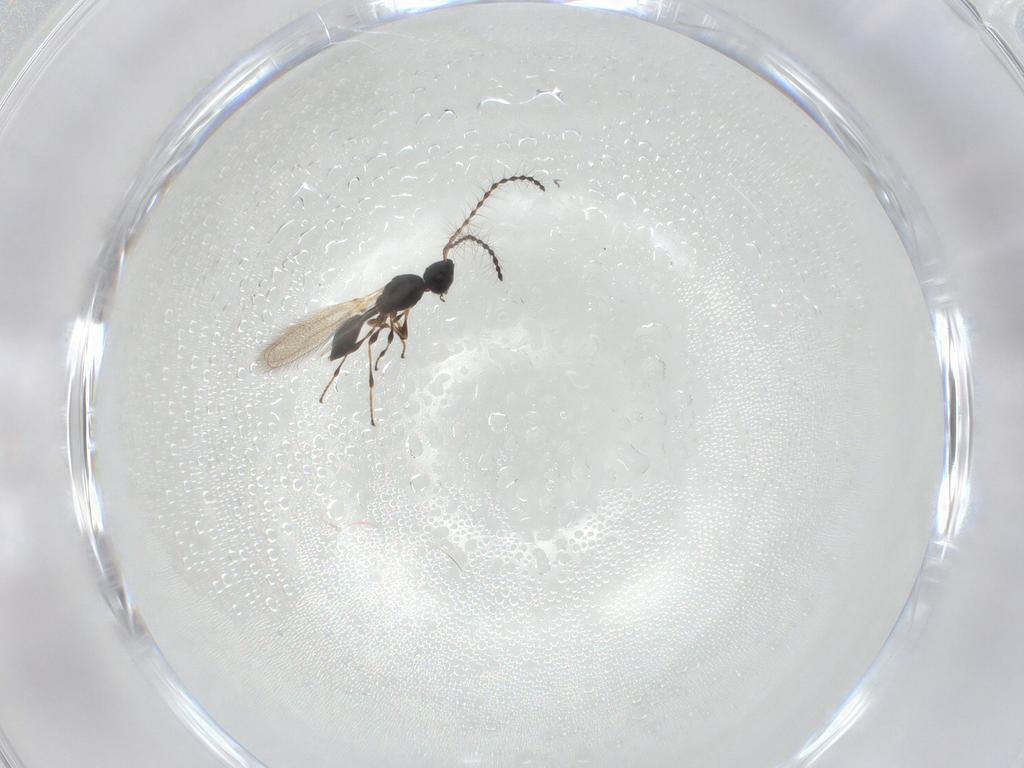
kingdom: Animalia
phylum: Arthropoda
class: Insecta
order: Hymenoptera
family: Diapriidae
